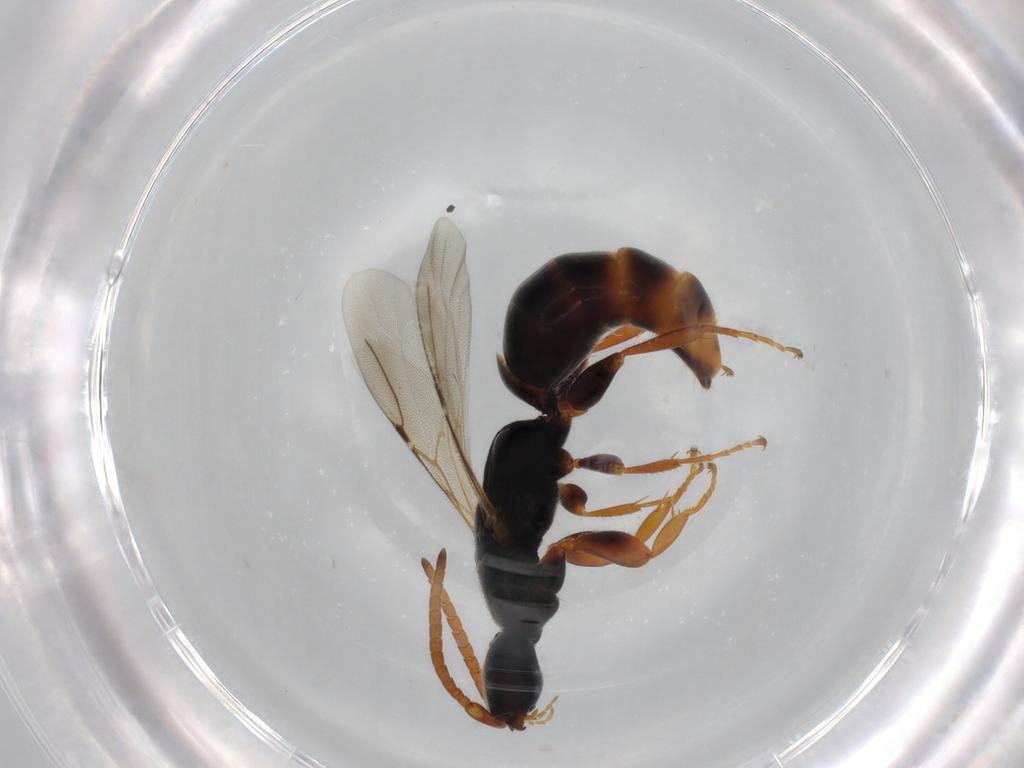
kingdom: Animalia
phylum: Arthropoda
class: Insecta
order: Hymenoptera
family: Bethylidae
